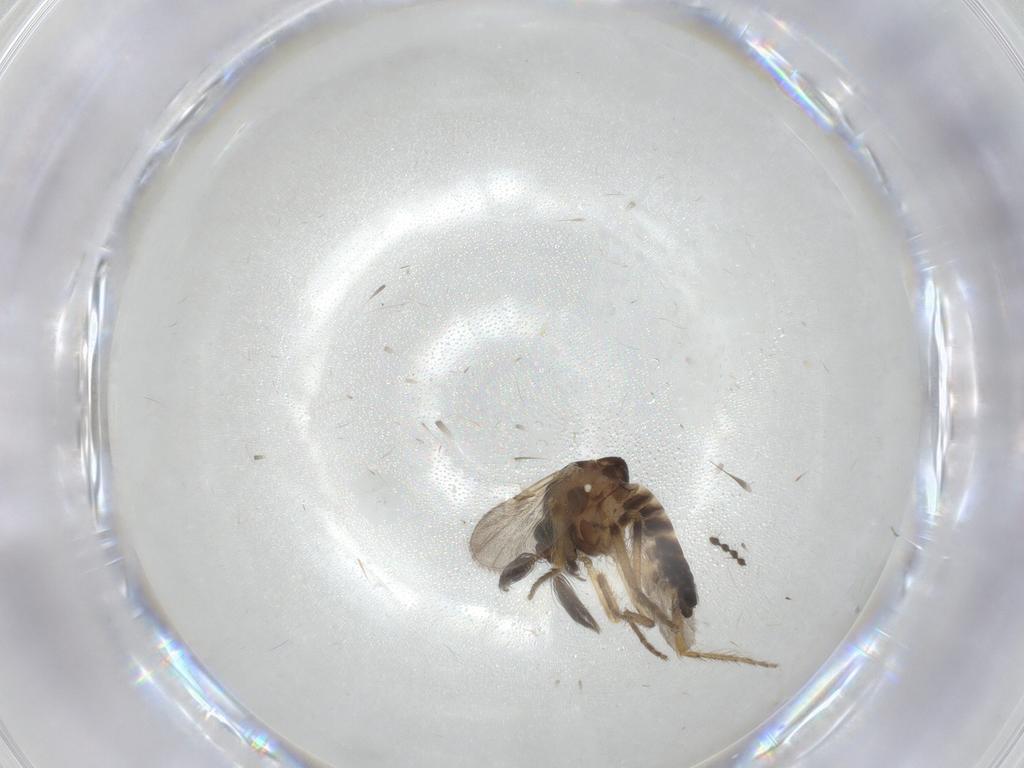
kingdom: Animalia
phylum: Arthropoda
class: Insecta
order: Diptera
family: Ceratopogonidae
